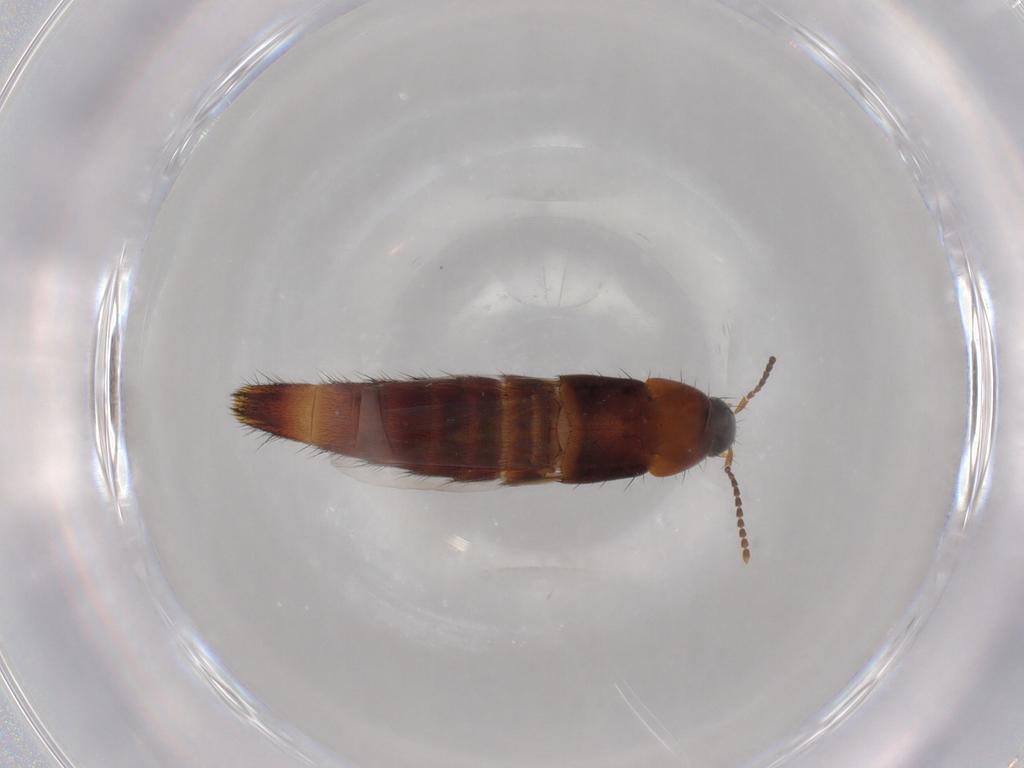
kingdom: Animalia
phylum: Arthropoda
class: Insecta
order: Coleoptera
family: Staphylinidae
